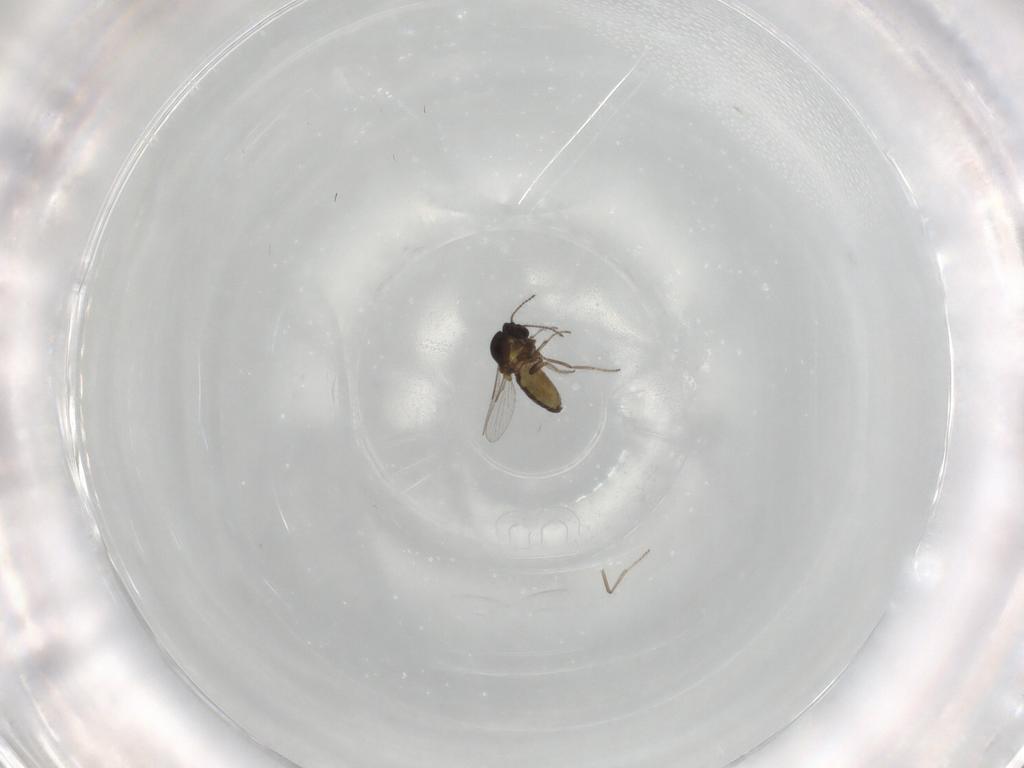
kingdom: Animalia
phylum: Arthropoda
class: Insecta
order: Diptera
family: Ceratopogonidae
